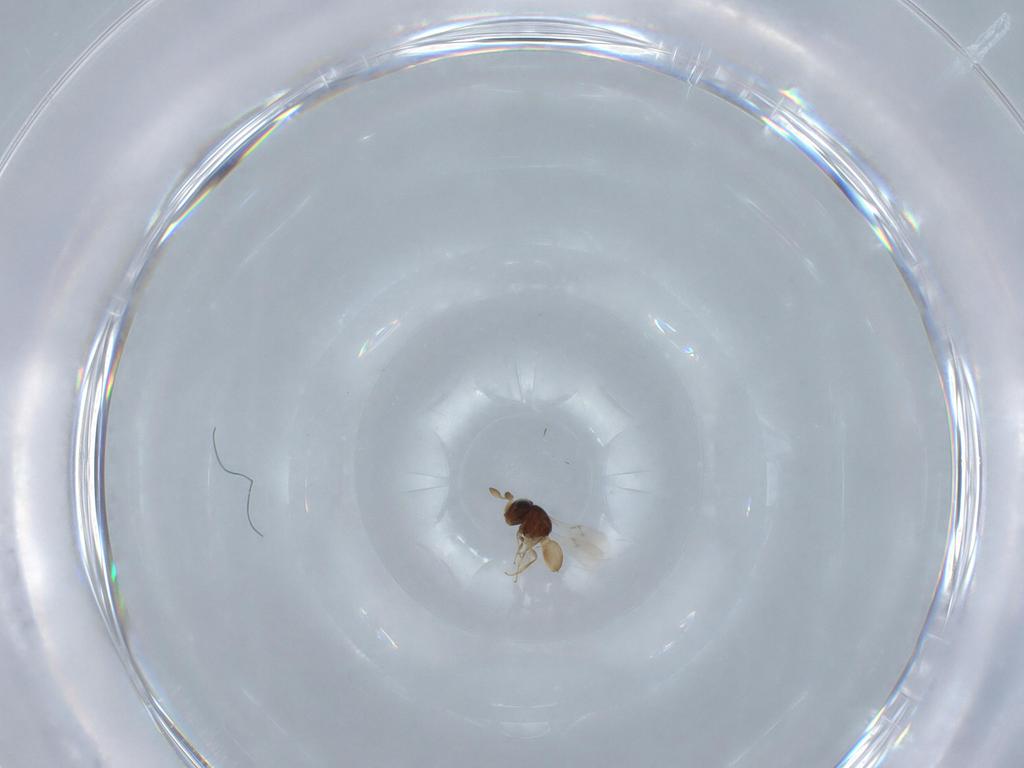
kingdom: Animalia
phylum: Arthropoda
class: Insecta
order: Hymenoptera
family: Scelionidae
